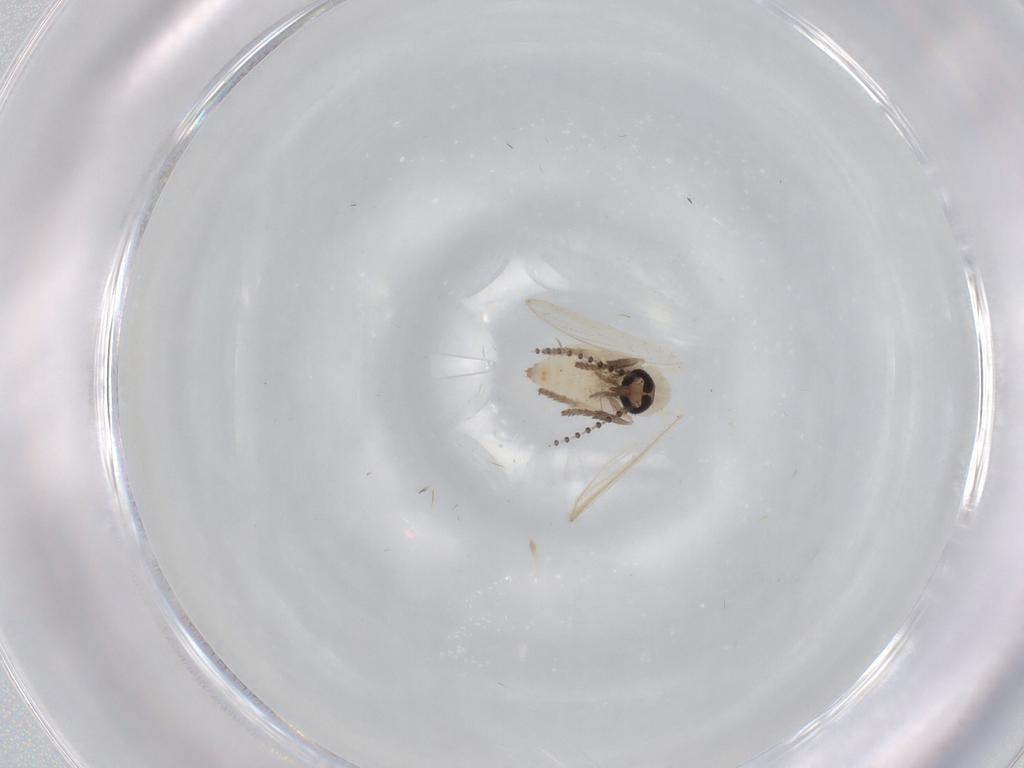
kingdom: Animalia
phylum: Arthropoda
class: Insecta
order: Diptera
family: Psychodidae
